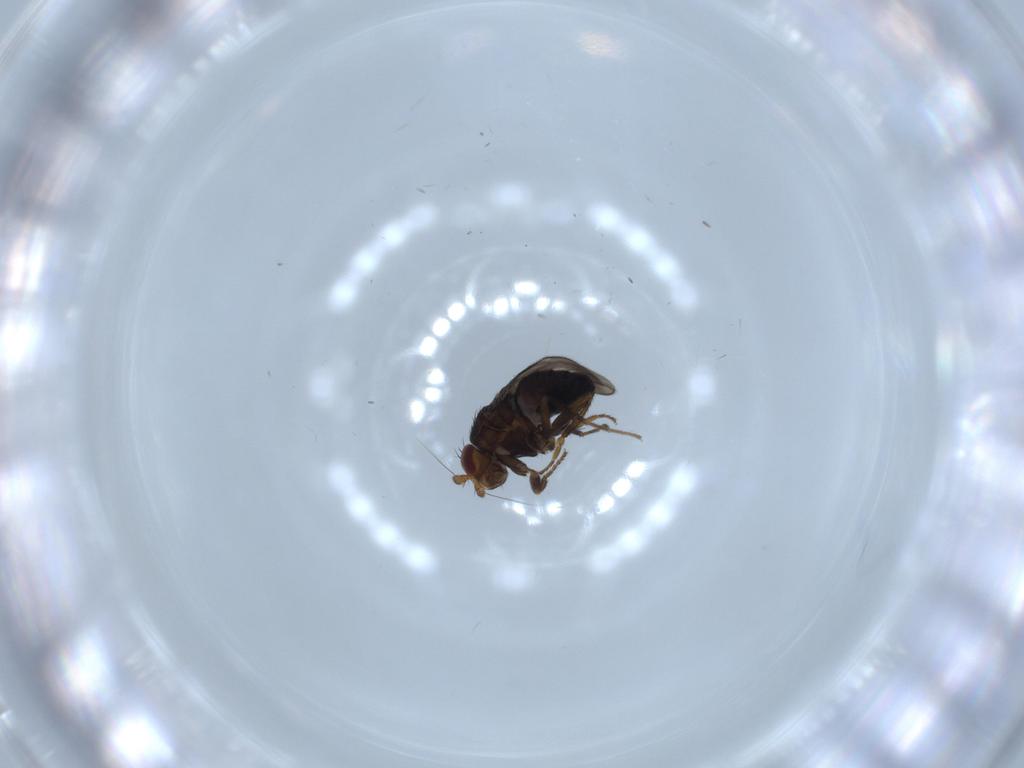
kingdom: Animalia
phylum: Arthropoda
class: Insecta
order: Diptera
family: Sphaeroceridae
